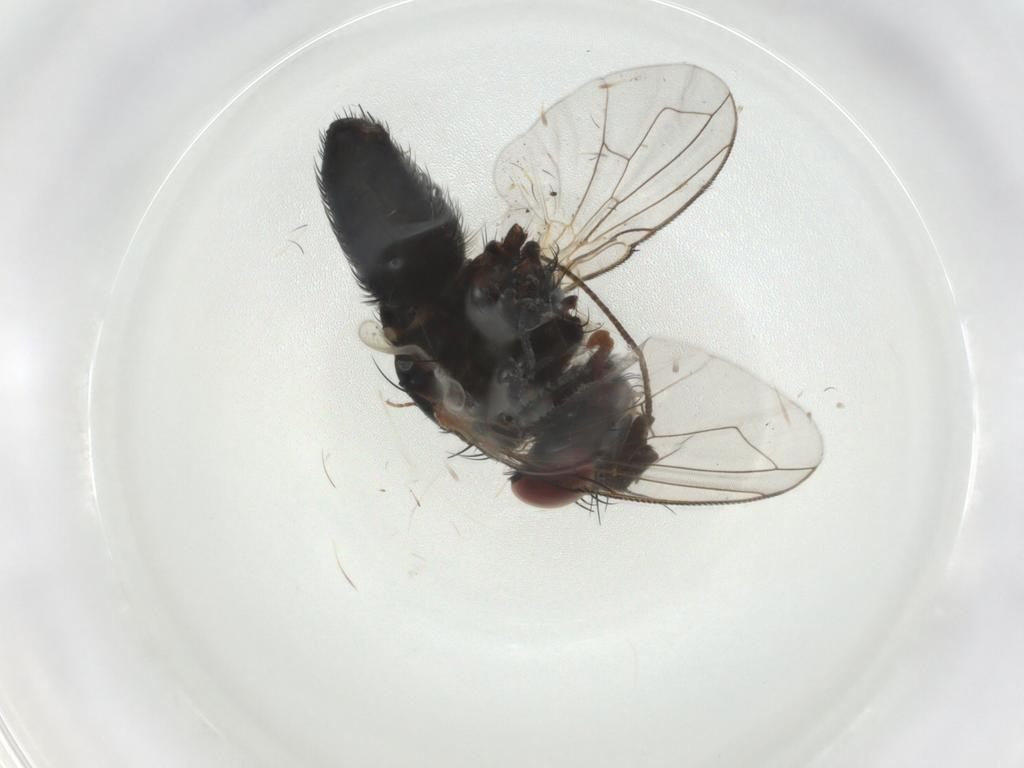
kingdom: Animalia
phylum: Arthropoda
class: Insecta
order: Diptera
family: Tachinidae
